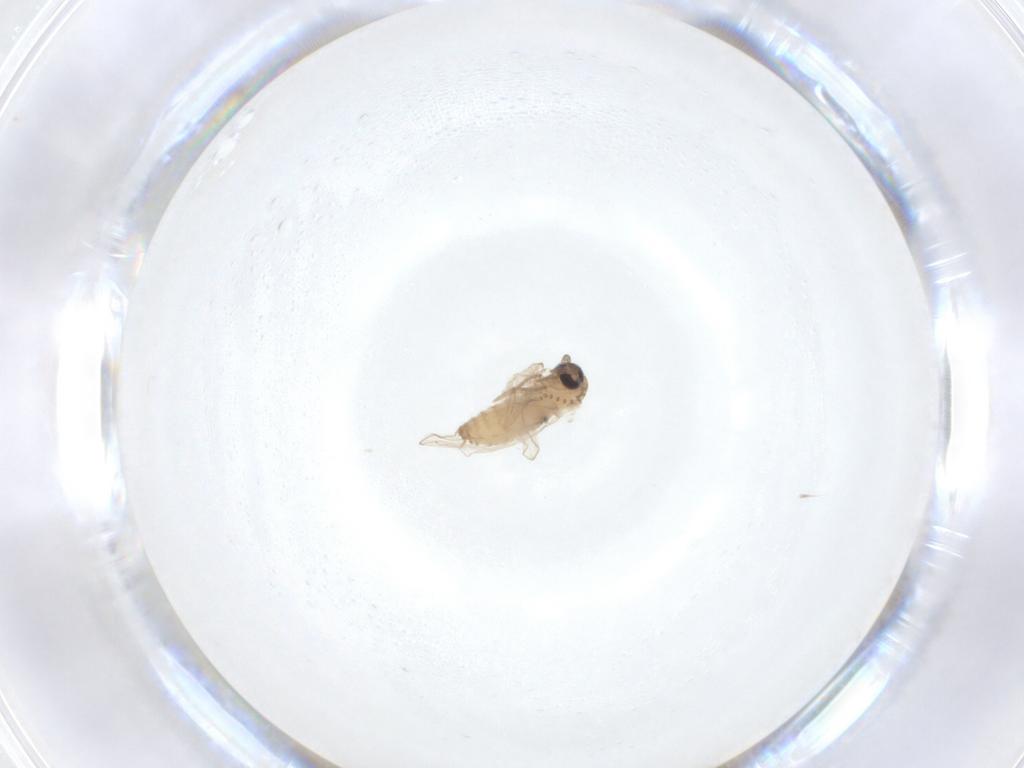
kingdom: Animalia
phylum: Arthropoda
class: Insecta
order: Diptera
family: Psychodidae
